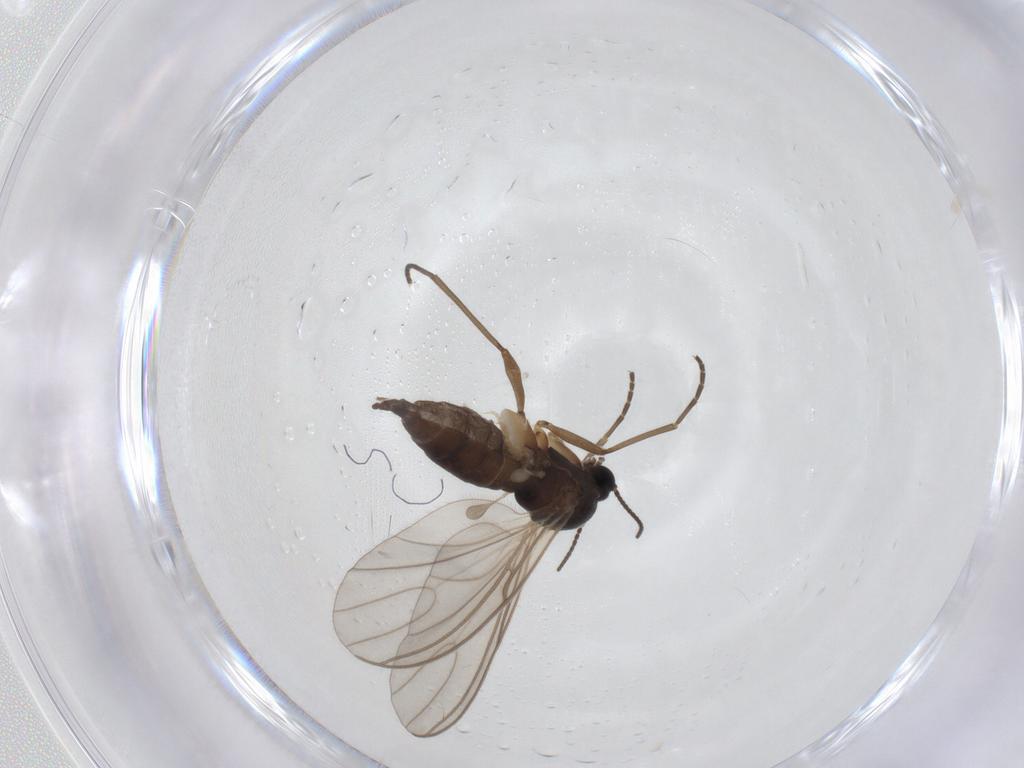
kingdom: Animalia
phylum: Arthropoda
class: Insecta
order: Diptera
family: Sciaridae
